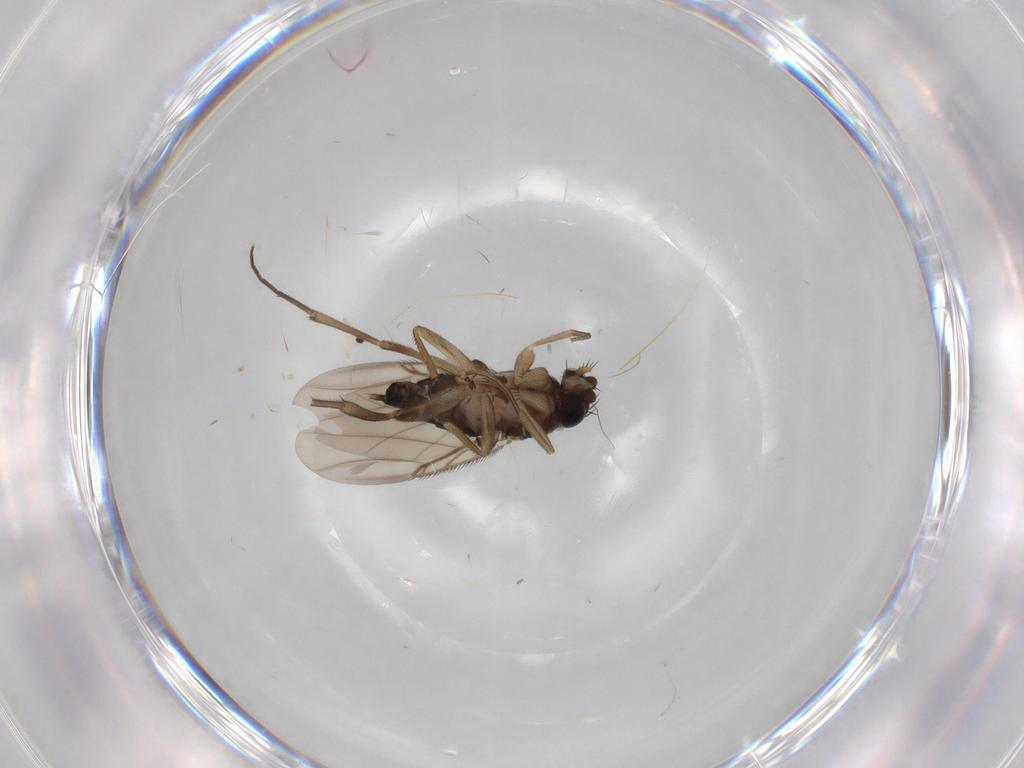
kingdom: Animalia
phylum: Arthropoda
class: Insecta
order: Diptera
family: Phoridae
